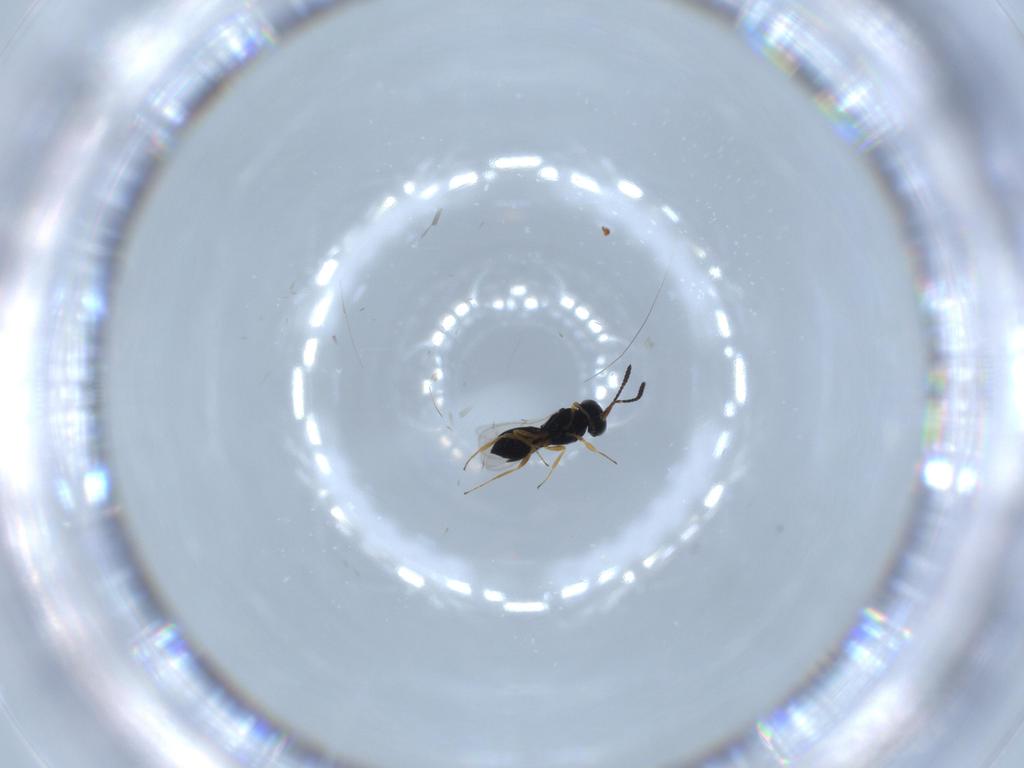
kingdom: Animalia
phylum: Arthropoda
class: Insecta
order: Hymenoptera
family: Scelionidae
